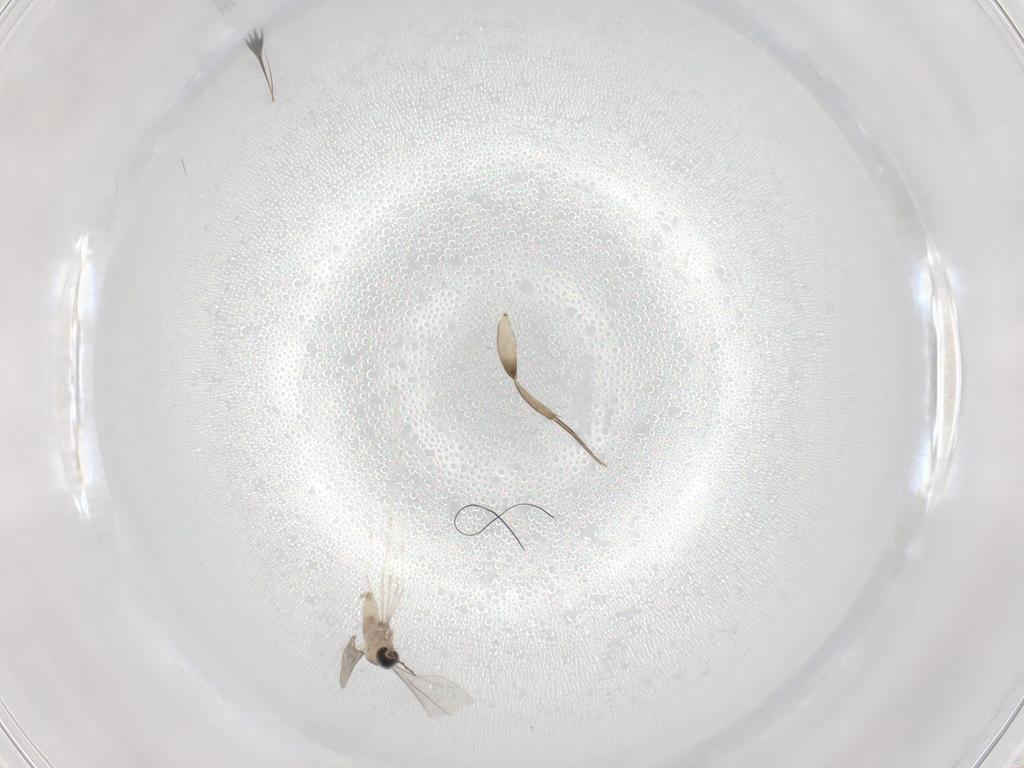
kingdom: Animalia
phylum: Arthropoda
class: Insecta
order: Diptera
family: Cecidomyiidae
